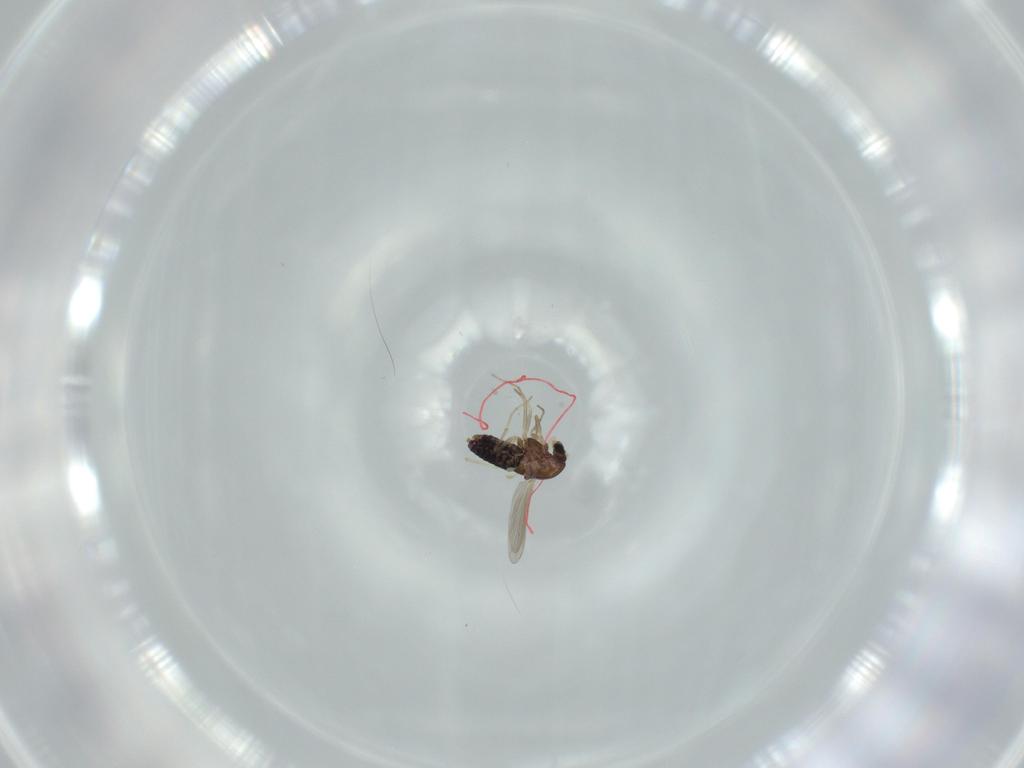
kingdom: Animalia
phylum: Arthropoda
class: Insecta
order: Diptera
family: Chironomidae
